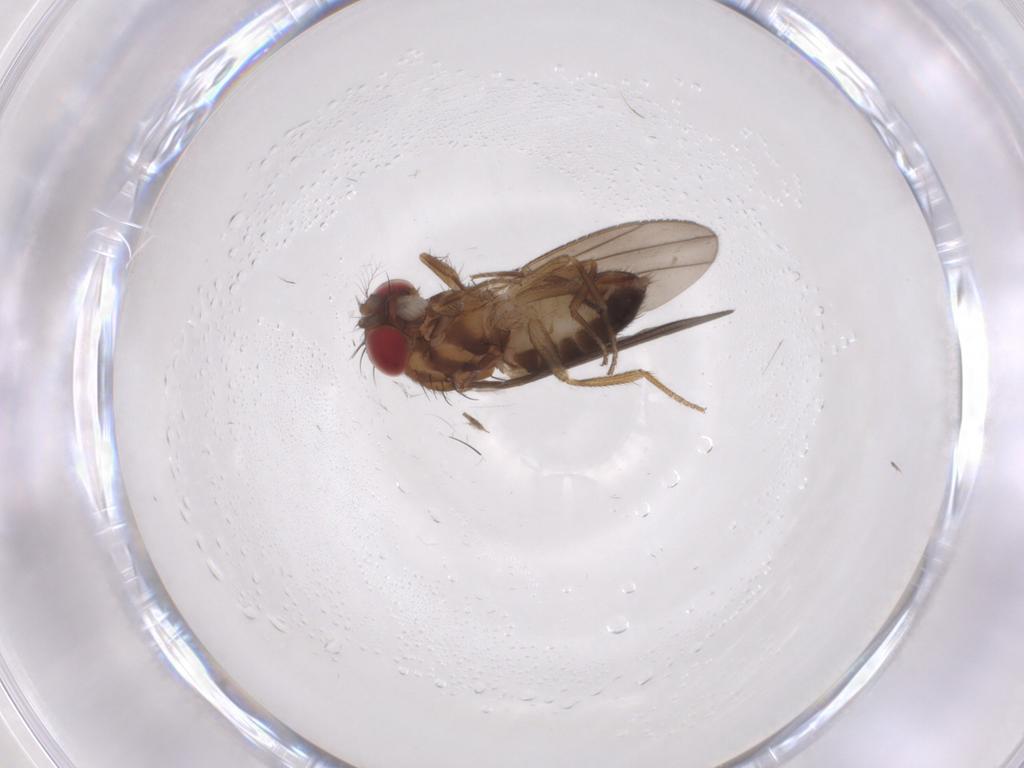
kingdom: Animalia
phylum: Arthropoda
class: Insecta
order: Diptera
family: Drosophilidae
